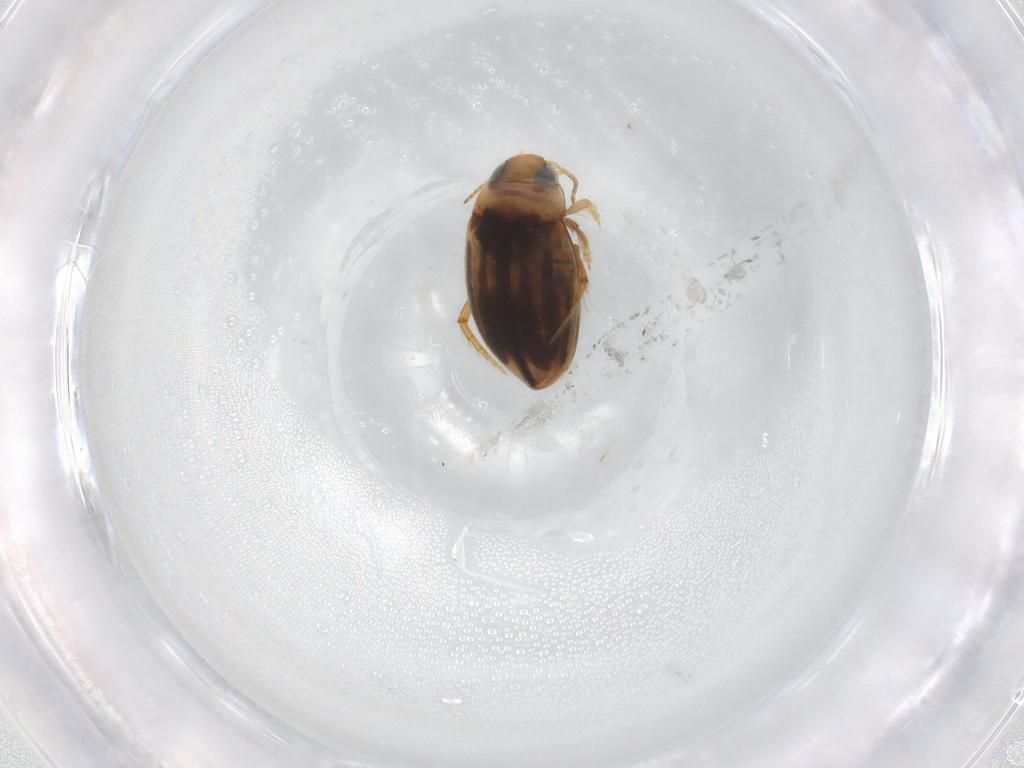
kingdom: Animalia
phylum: Arthropoda
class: Insecta
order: Coleoptera
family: Dytiscidae
